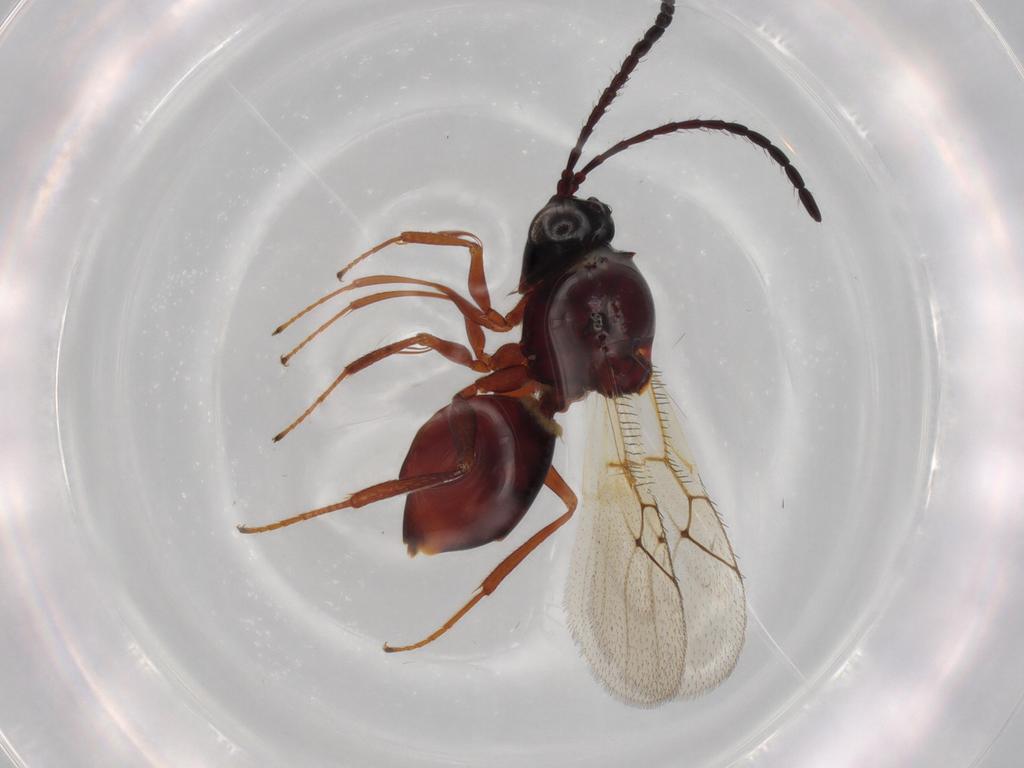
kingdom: Animalia
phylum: Arthropoda
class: Insecta
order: Hymenoptera
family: Figitidae
